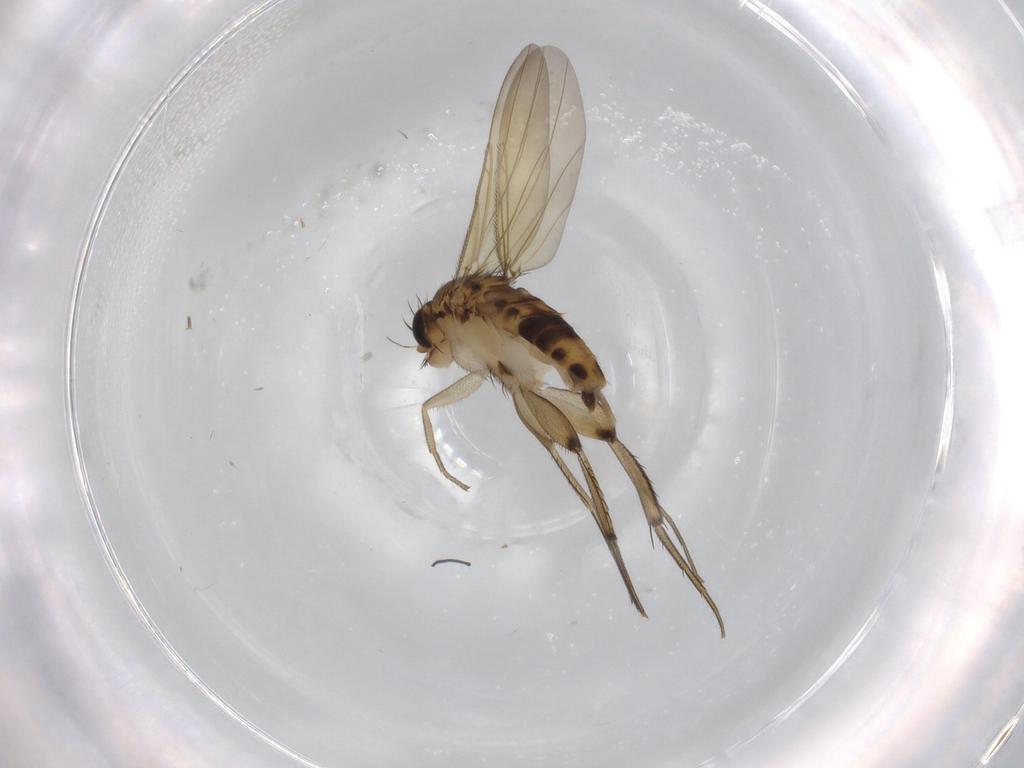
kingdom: Animalia
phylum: Arthropoda
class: Insecta
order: Diptera
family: Phoridae
